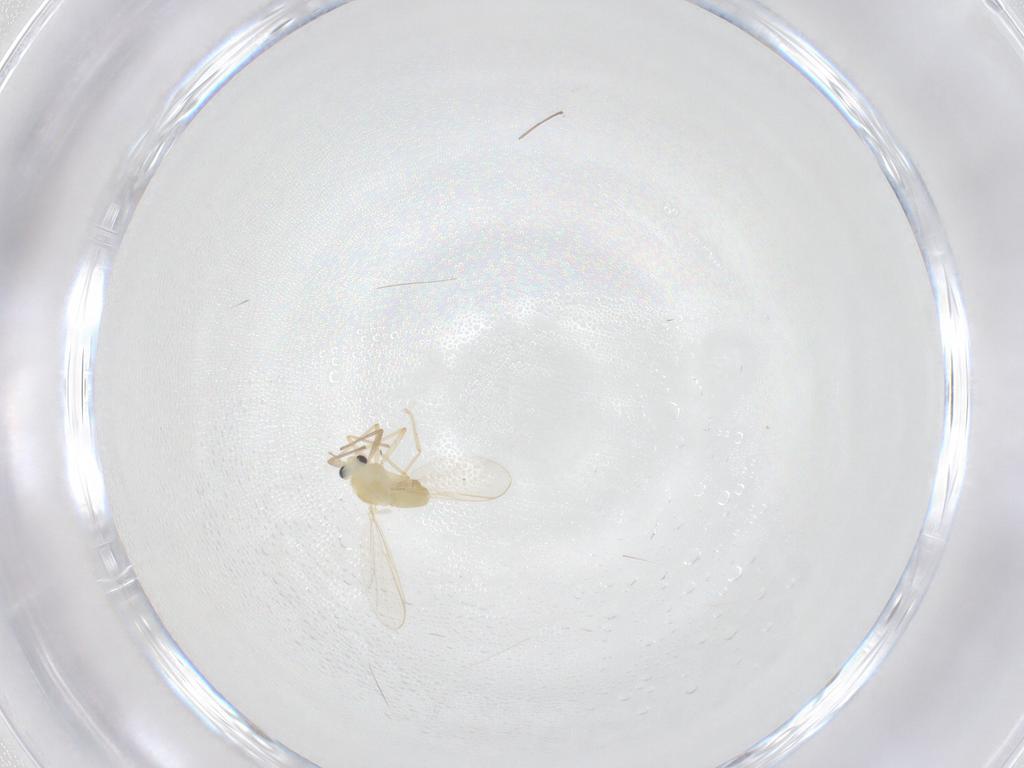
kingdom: Animalia
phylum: Arthropoda
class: Insecta
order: Diptera
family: Chironomidae
